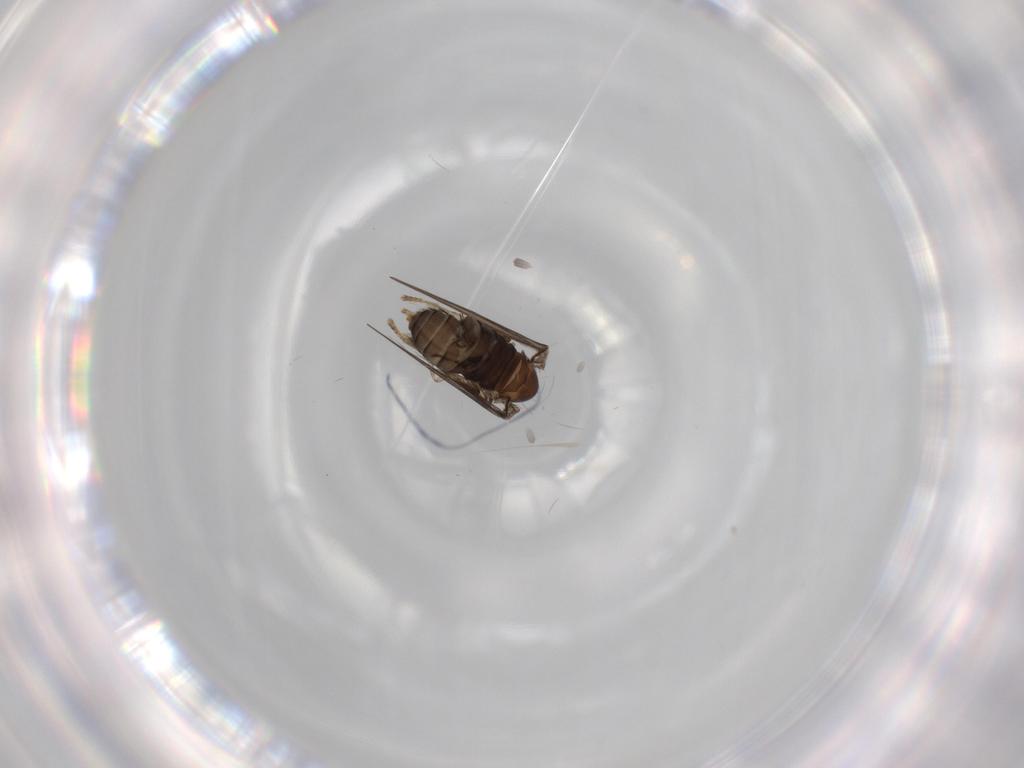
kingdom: Animalia
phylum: Arthropoda
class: Insecta
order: Diptera
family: Psychodidae
